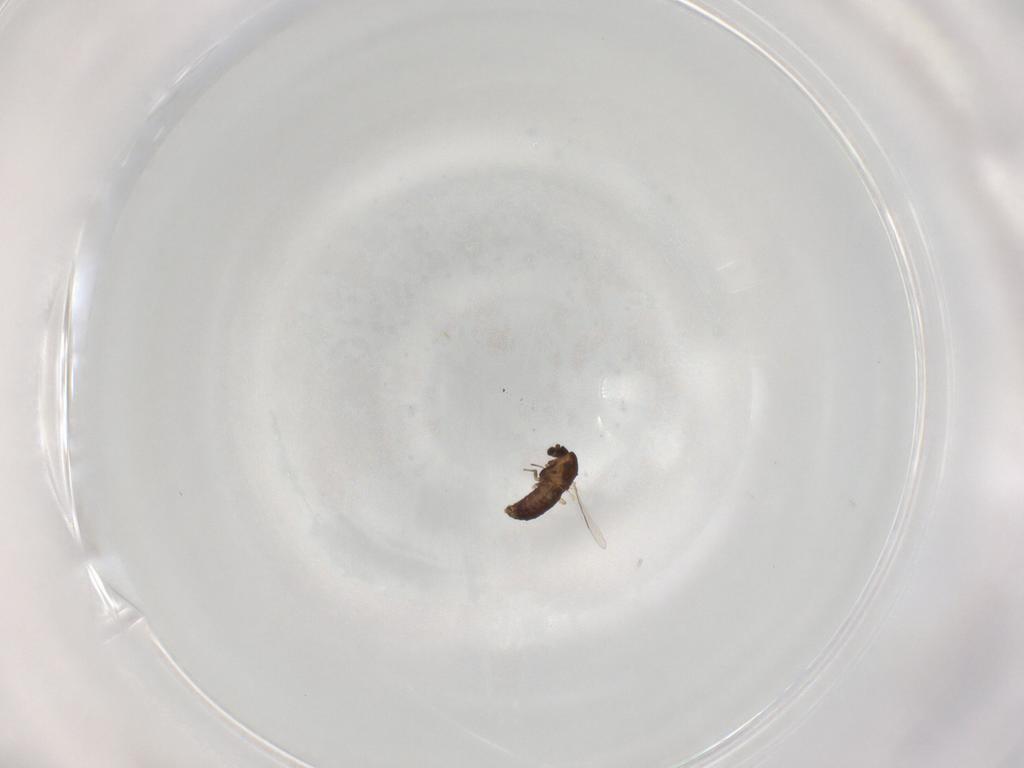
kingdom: Animalia
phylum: Arthropoda
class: Insecta
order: Diptera
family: Chironomidae
